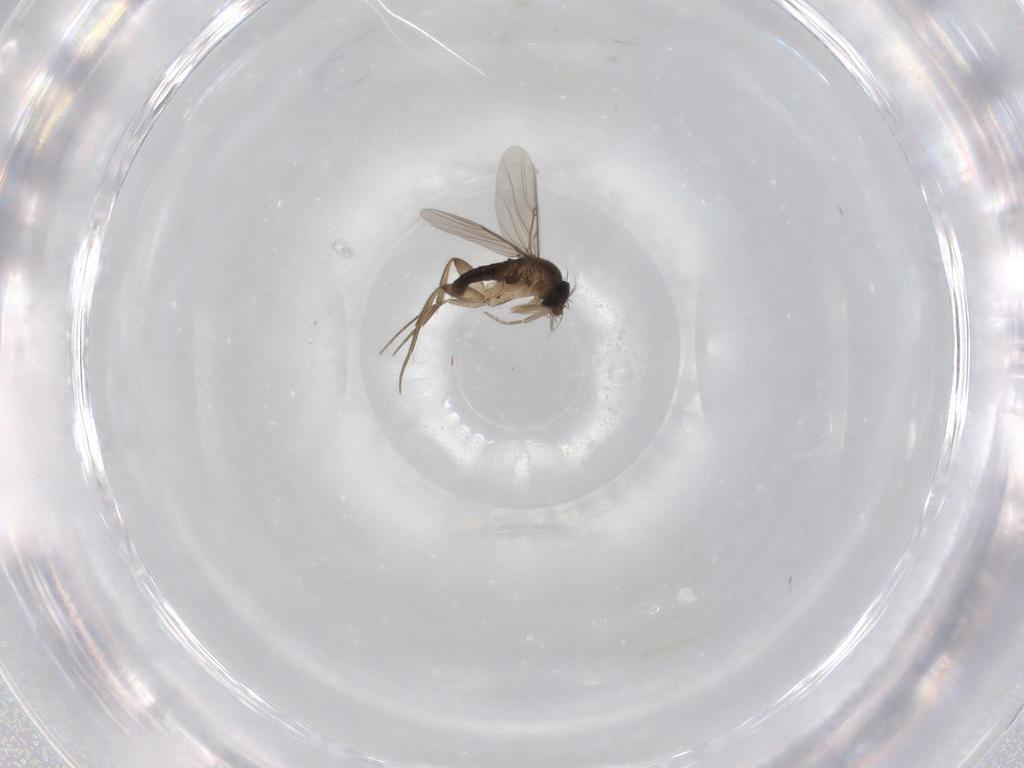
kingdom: Animalia
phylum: Arthropoda
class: Insecta
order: Diptera
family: Phoridae
